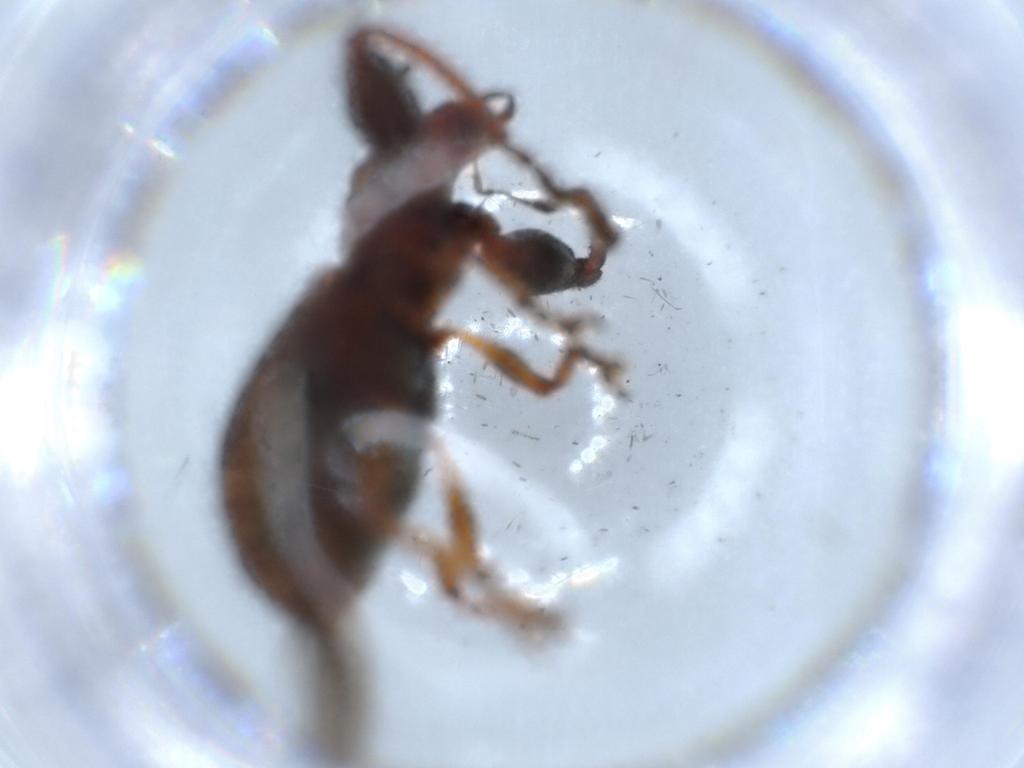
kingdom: Animalia
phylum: Arthropoda
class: Insecta
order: Coleoptera
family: Curculionidae
